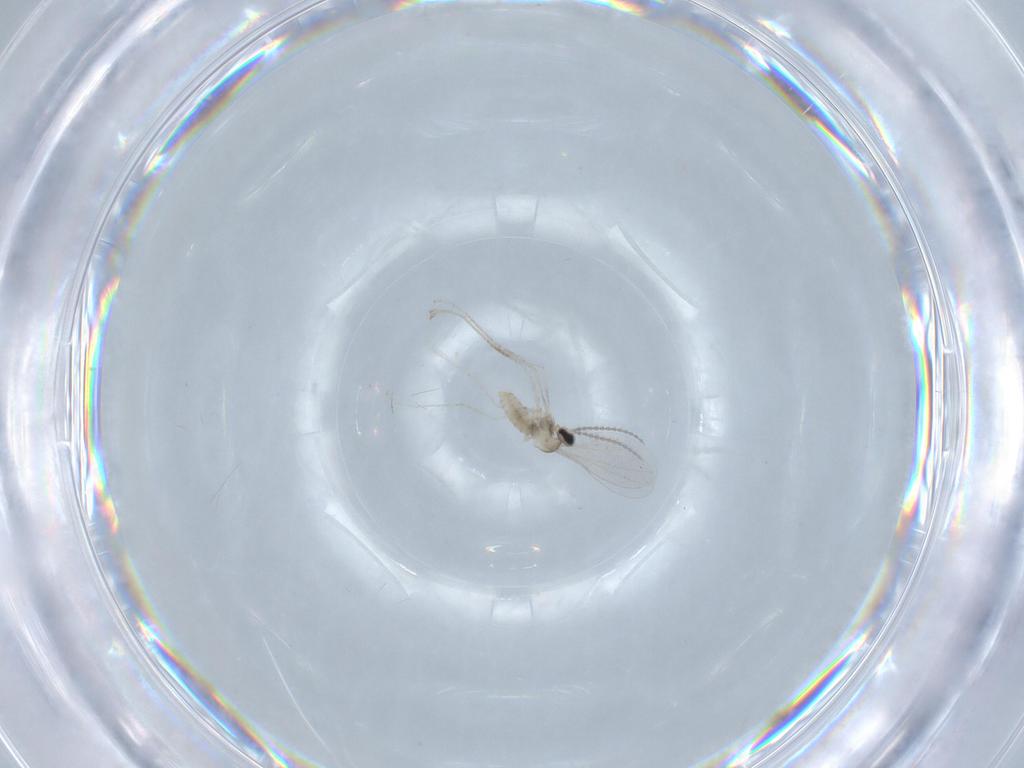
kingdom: Animalia
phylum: Arthropoda
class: Insecta
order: Diptera
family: Cecidomyiidae
